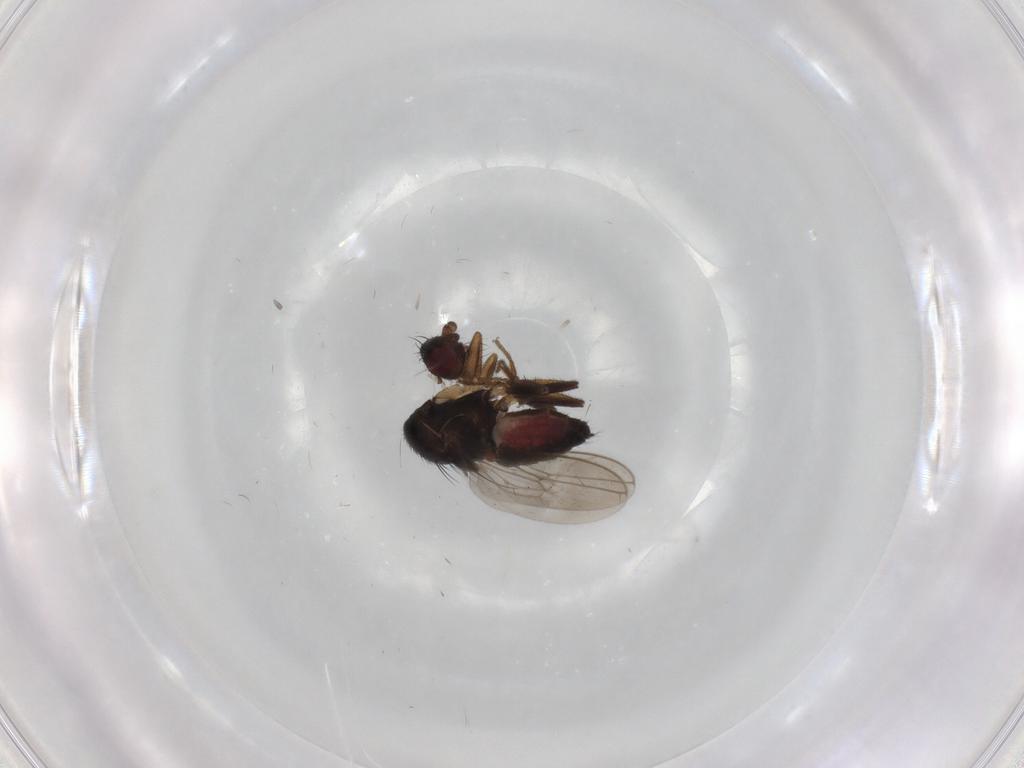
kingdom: Animalia
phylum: Arthropoda
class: Insecta
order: Diptera
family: Sphaeroceridae
